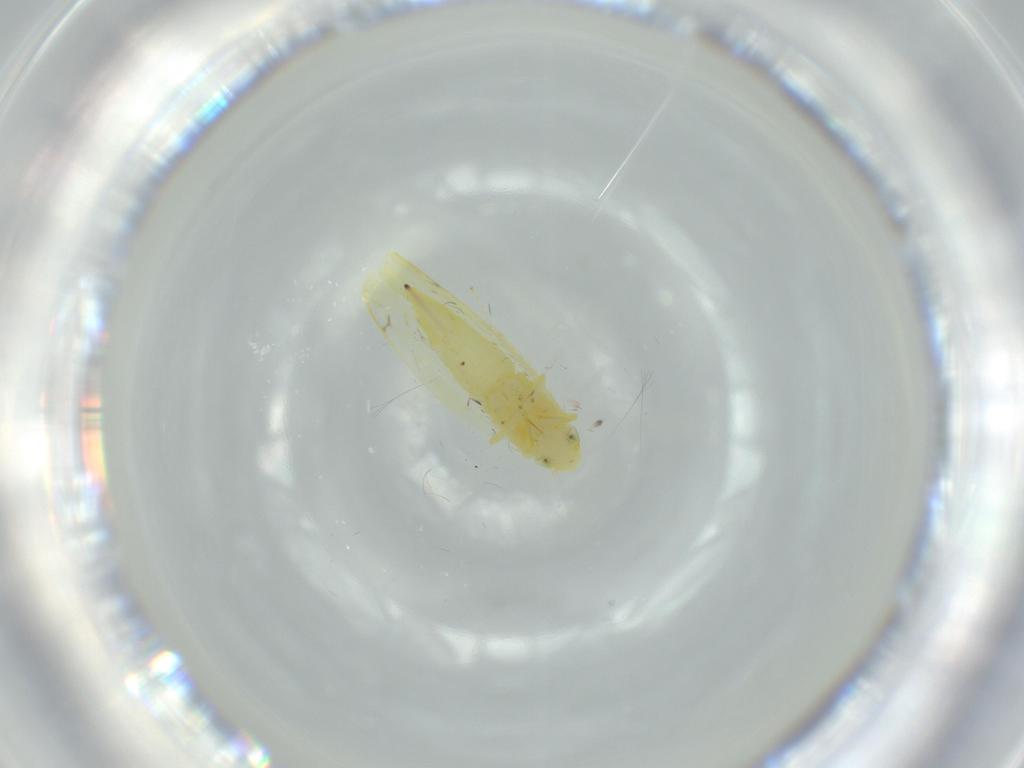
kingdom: Animalia
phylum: Arthropoda
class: Insecta
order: Hemiptera
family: Cicadellidae
